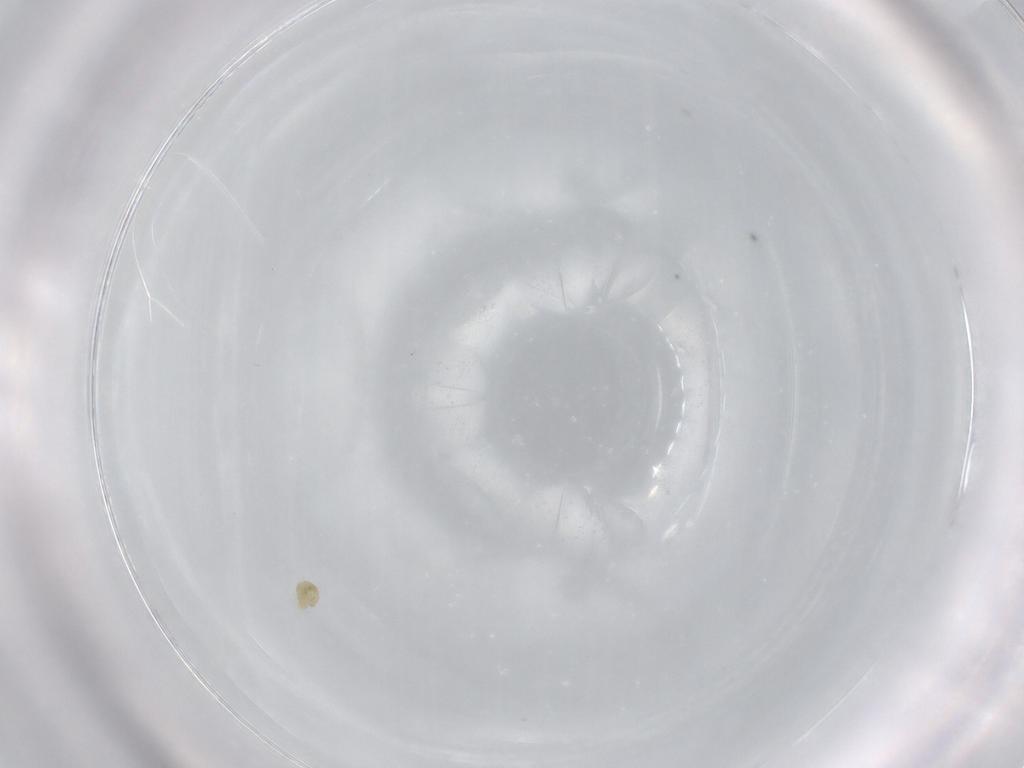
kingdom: Animalia
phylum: Arthropoda
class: Arachnida
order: Sarcoptiformes
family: Nanorchestidae
